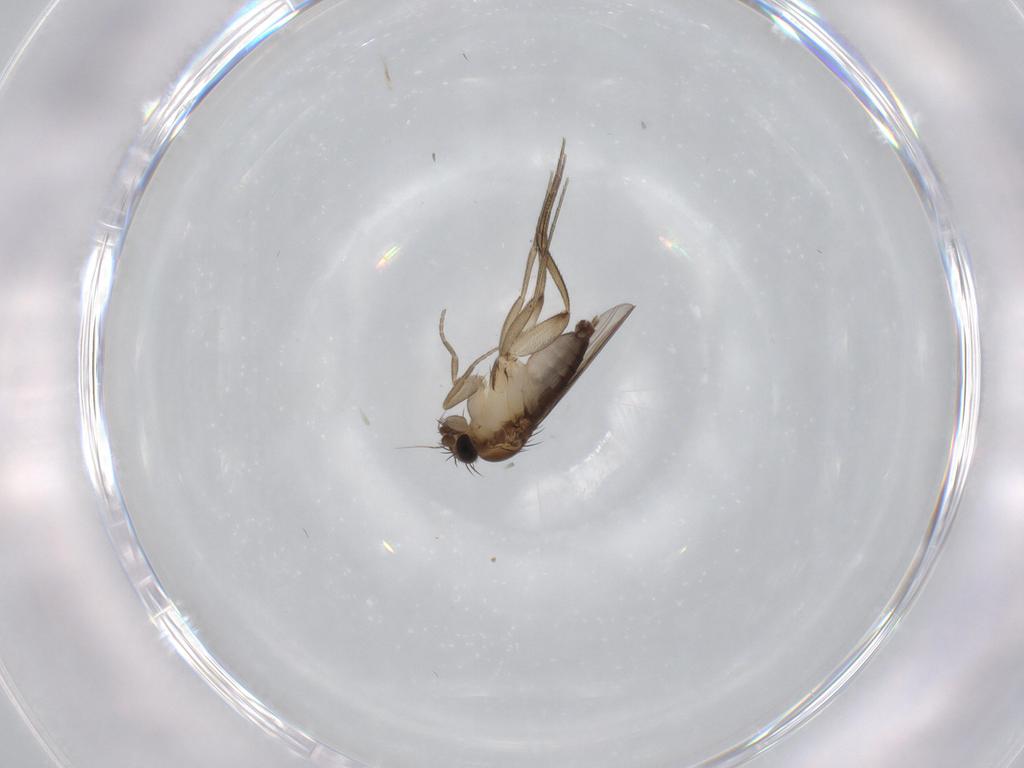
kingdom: Animalia
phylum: Arthropoda
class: Insecta
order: Diptera
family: Phoridae
